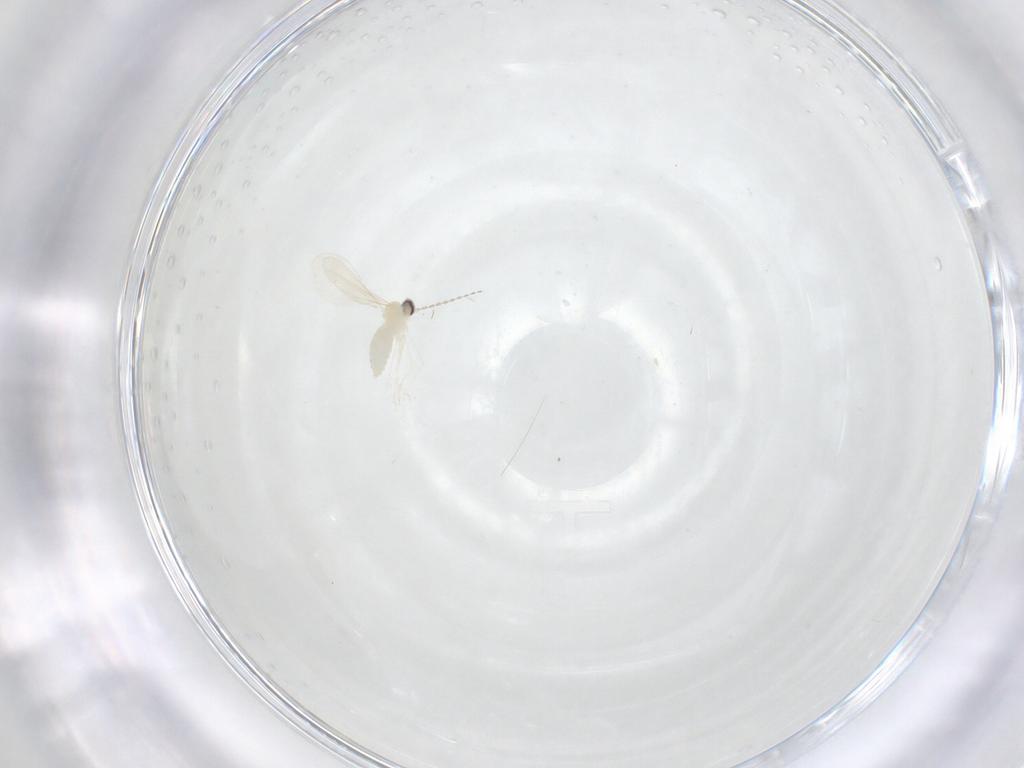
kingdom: Animalia
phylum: Arthropoda
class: Insecta
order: Diptera
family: Cecidomyiidae
